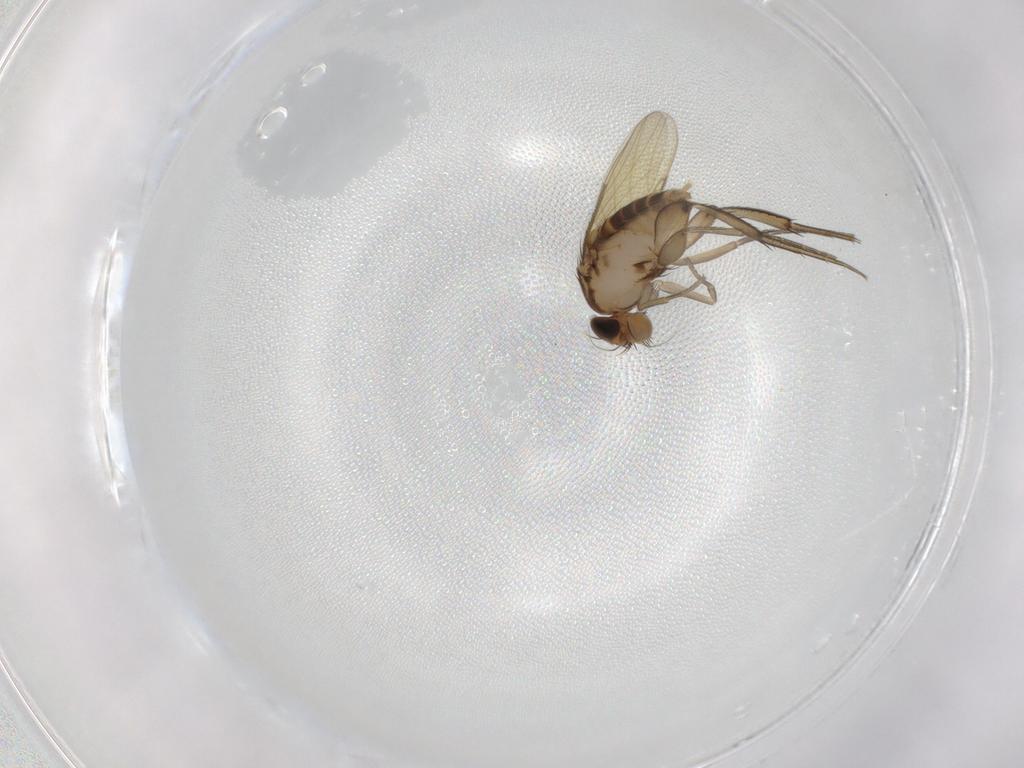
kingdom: Animalia
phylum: Arthropoda
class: Insecta
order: Diptera
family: Phoridae
